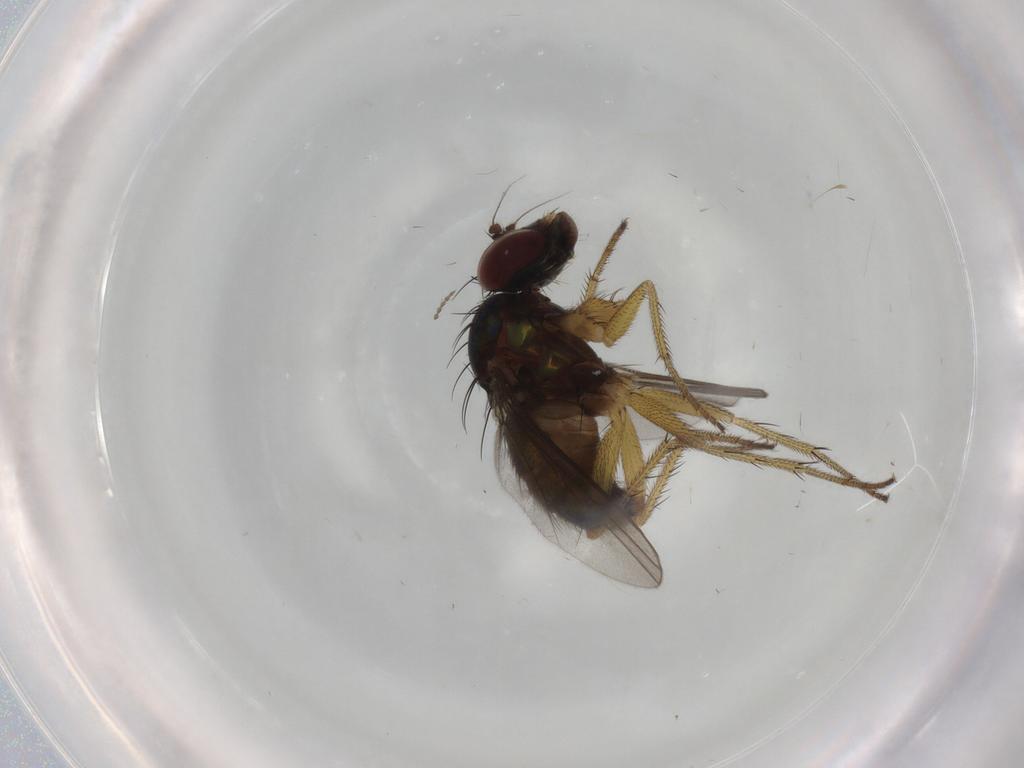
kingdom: Animalia
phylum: Arthropoda
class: Insecta
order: Diptera
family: Dolichopodidae
